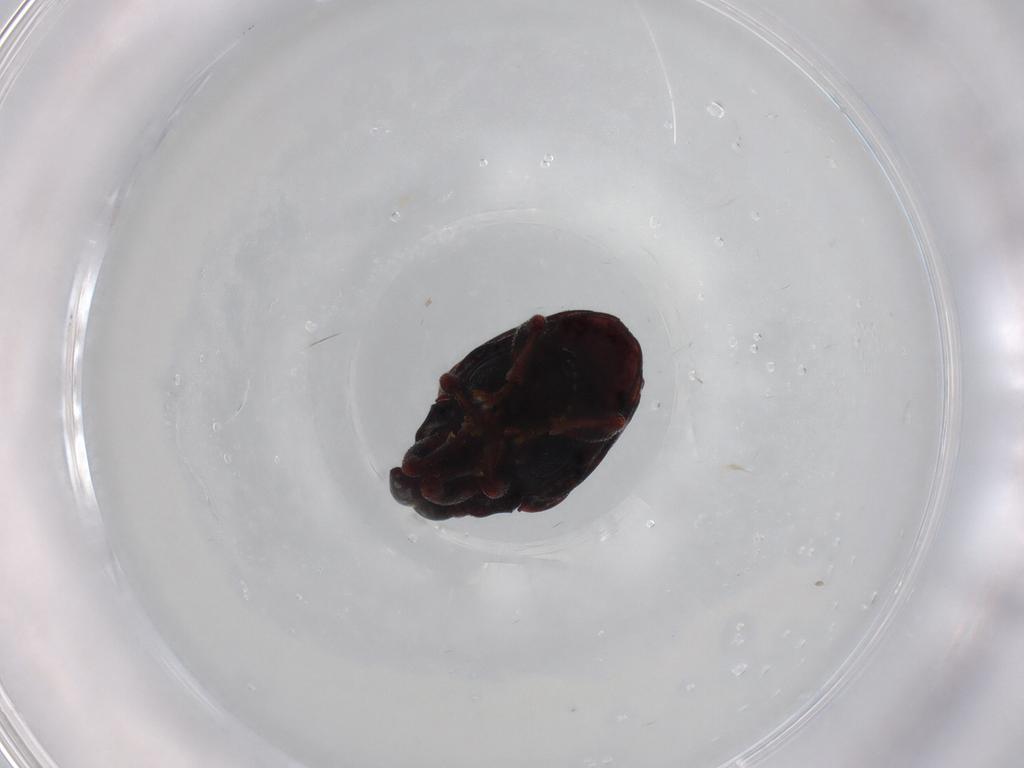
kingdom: Animalia
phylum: Arthropoda
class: Insecta
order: Coleoptera
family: Curculionidae
